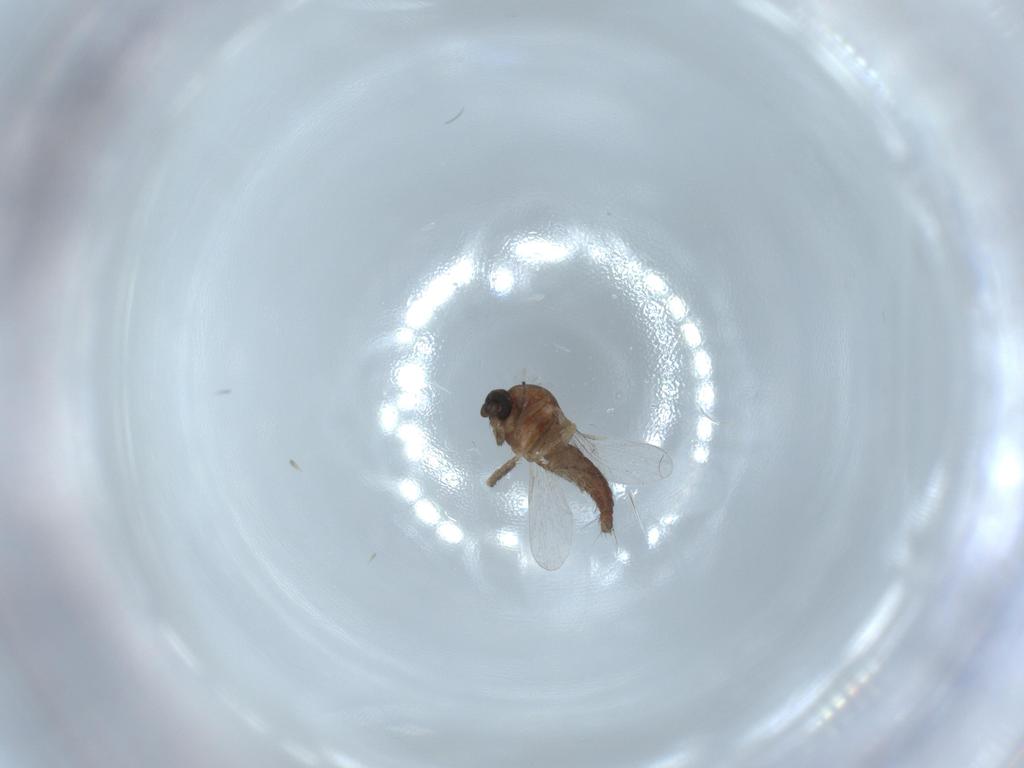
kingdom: Animalia
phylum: Arthropoda
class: Insecta
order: Diptera
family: Ceratopogonidae
